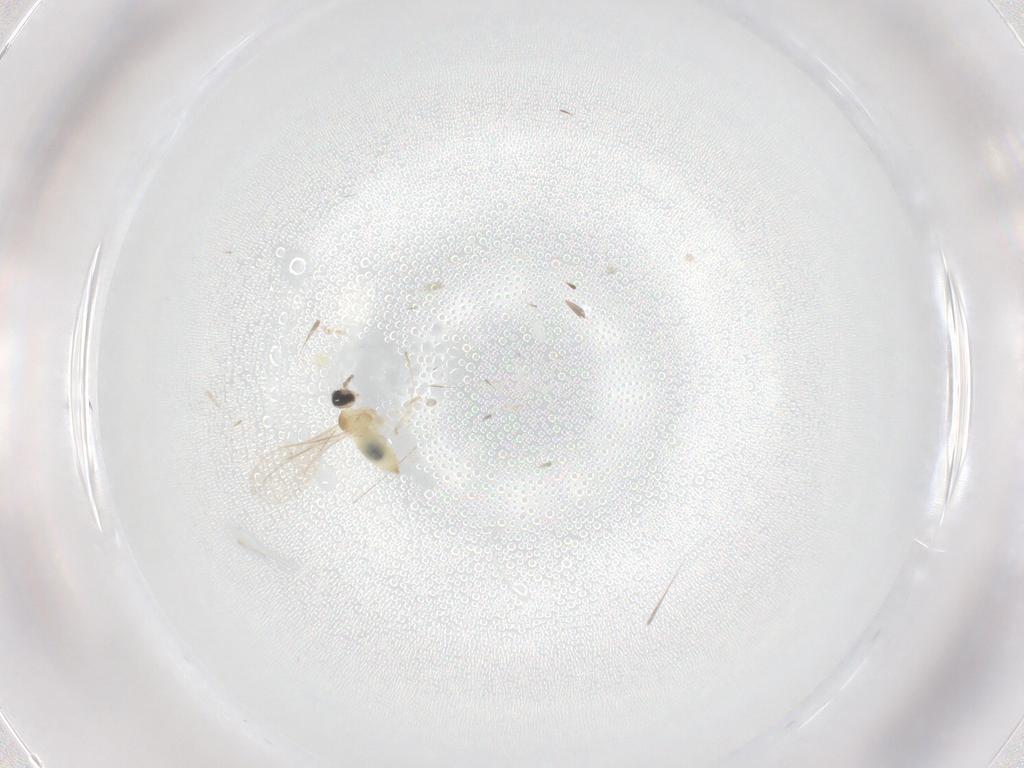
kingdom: Animalia
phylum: Arthropoda
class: Insecta
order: Diptera
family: Cecidomyiidae
